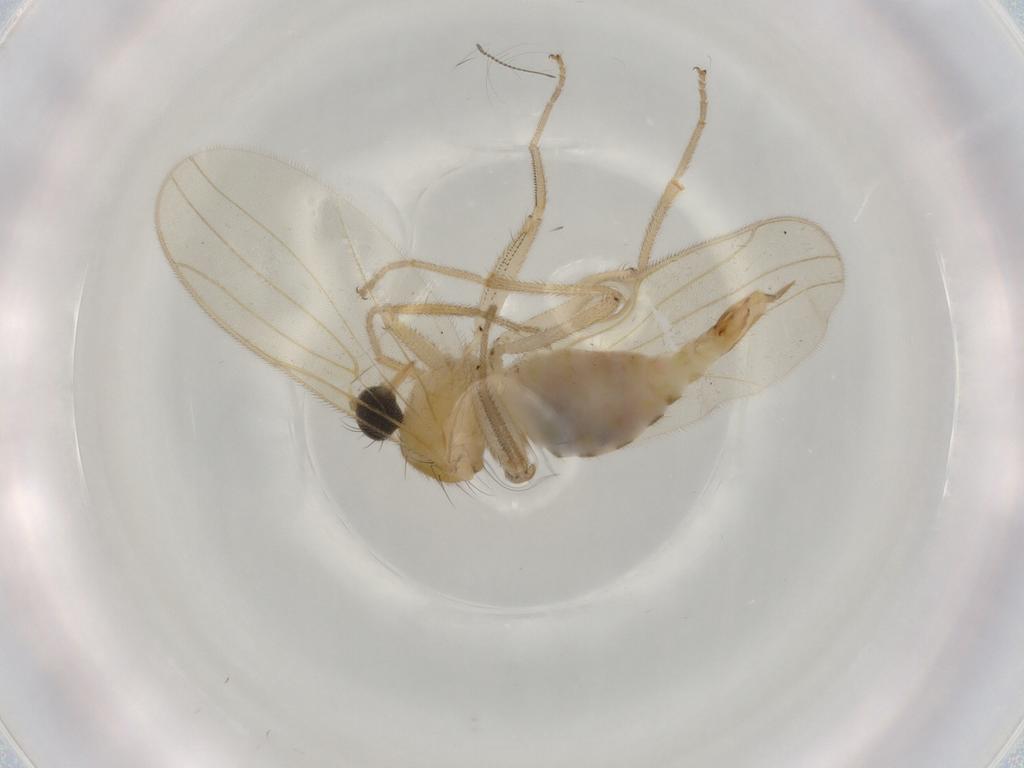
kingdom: Animalia
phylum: Arthropoda
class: Insecta
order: Diptera
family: Hybotidae
